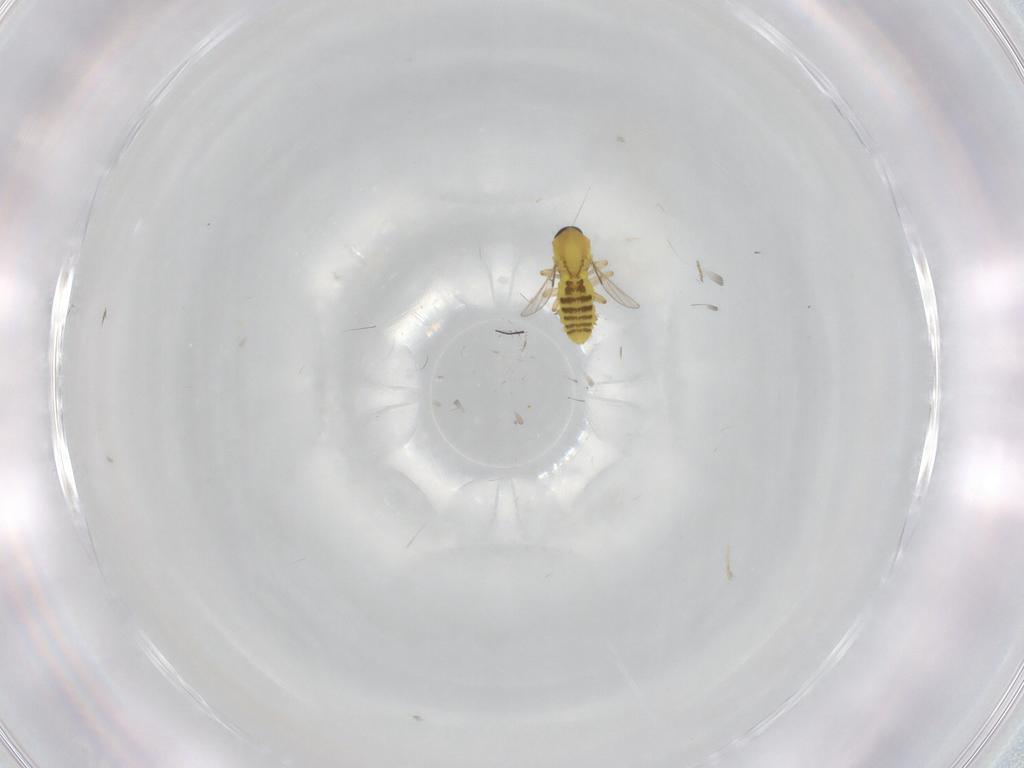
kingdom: Animalia
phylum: Arthropoda
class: Insecta
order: Diptera
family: Ceratopogonidae
